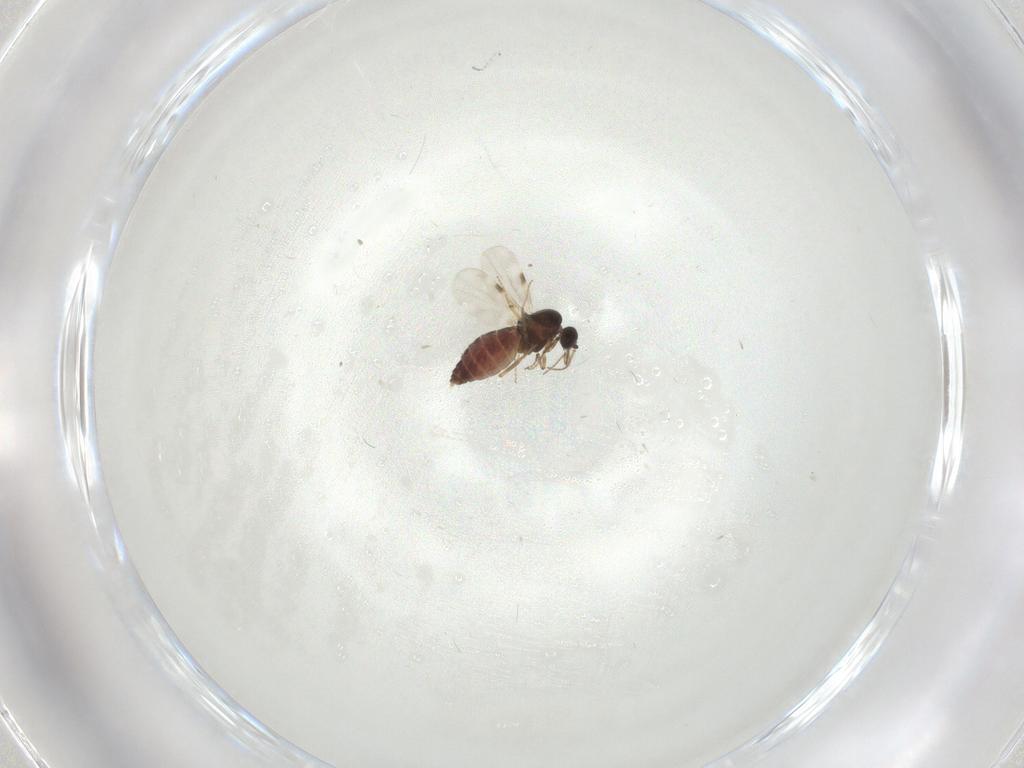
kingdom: Animalia
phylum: Arthropoda
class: Insecta
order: Diptera
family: Chironomidae
